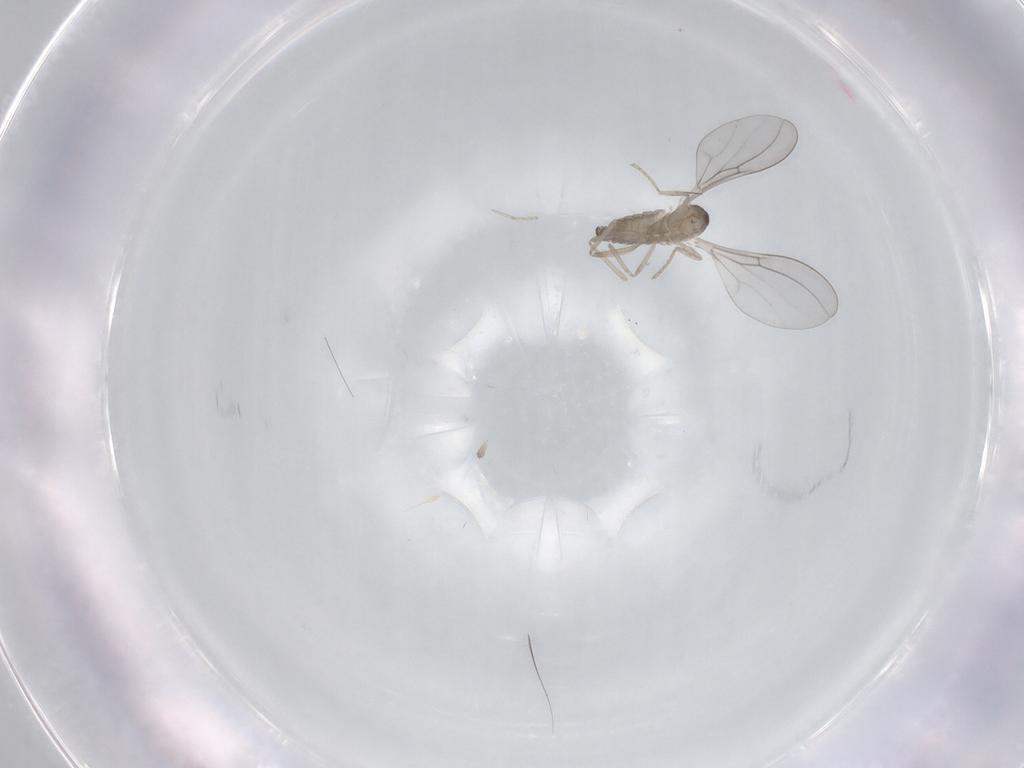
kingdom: Animalia
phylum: Arthropoda
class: Insecta
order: Diptera
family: Cecidomyiidae
